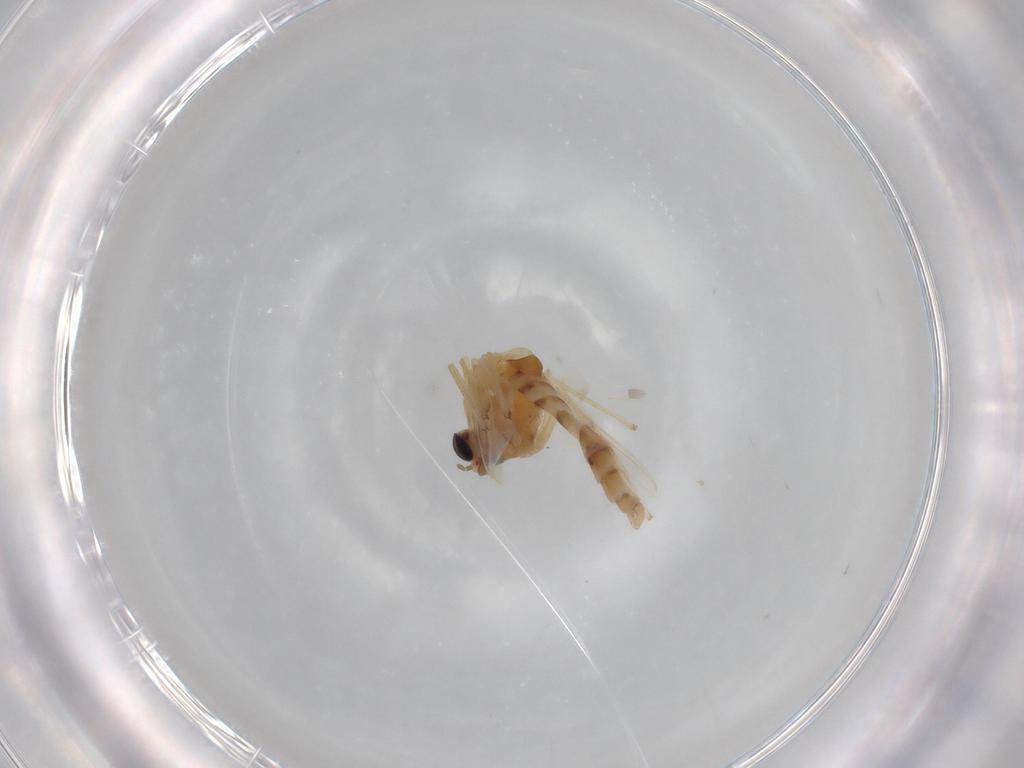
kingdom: Animalia
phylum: Arthropoda
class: Insecta
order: Diptera
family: Chironomidae
